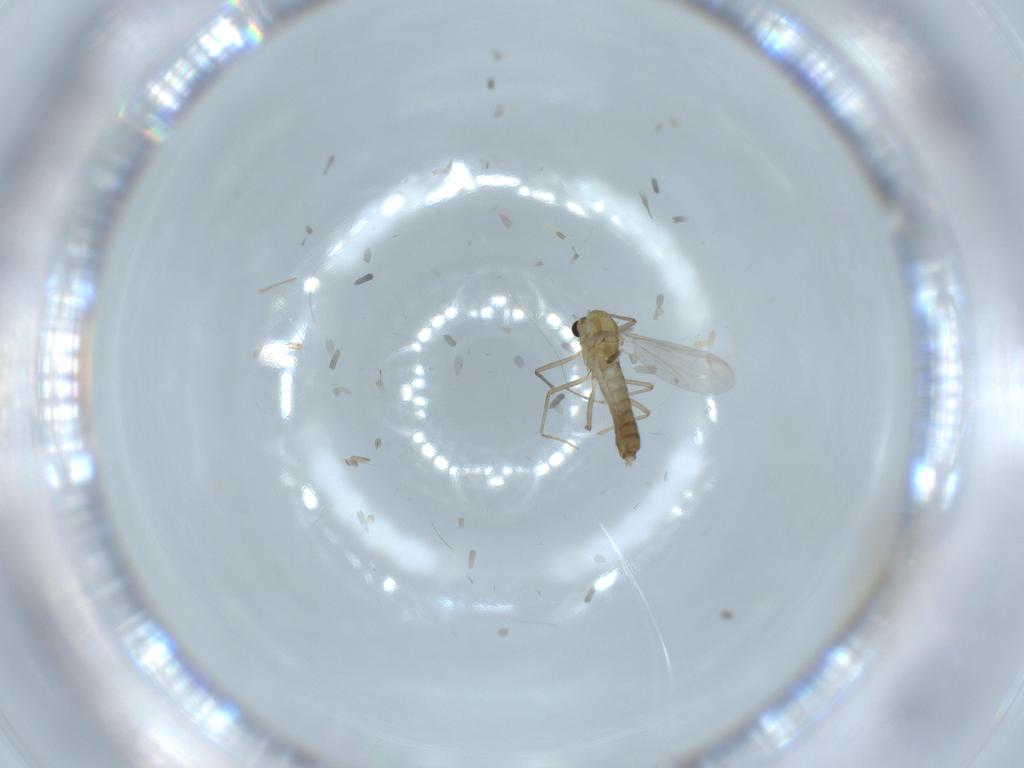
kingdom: Animalia
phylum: Arthropoda
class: Insecta
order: Diptera
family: Chironomidae
